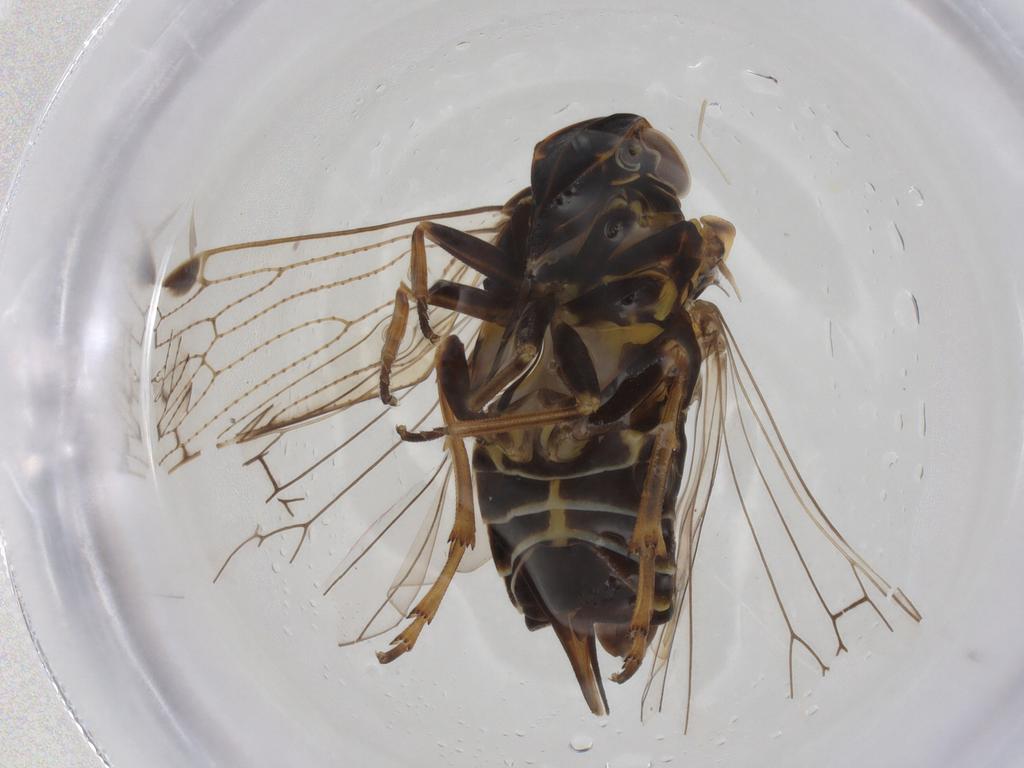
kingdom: Animalia
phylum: Arthropoda
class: Insecta
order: Hemiptera
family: Cixiidae
